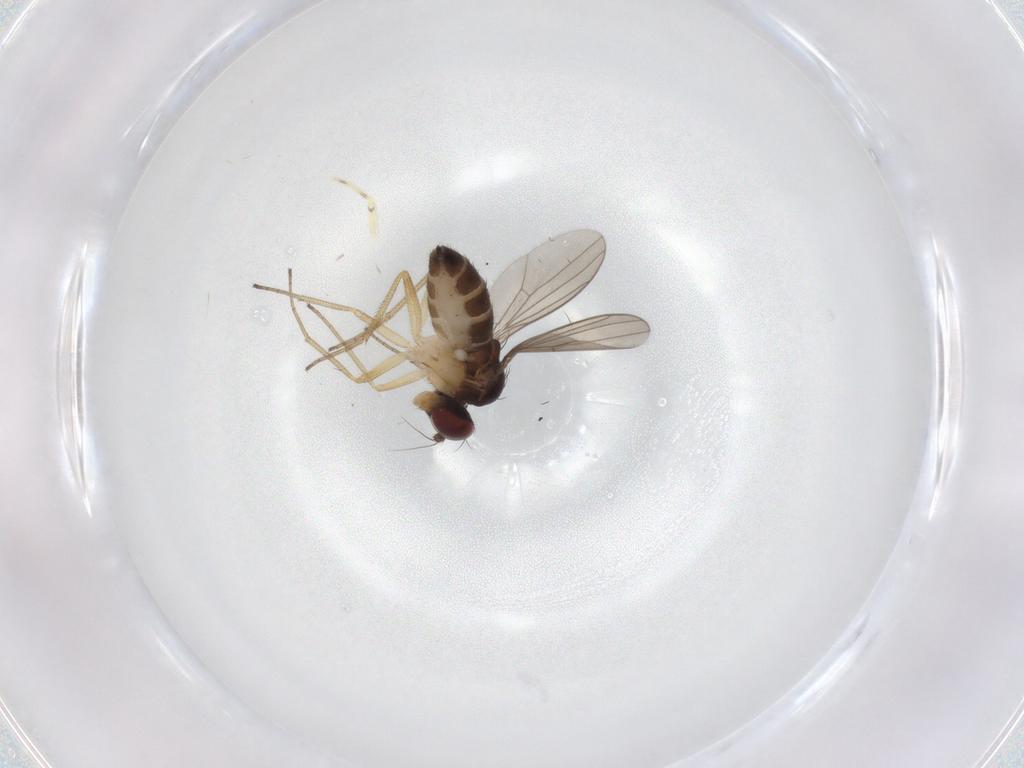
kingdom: Animalia
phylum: Arthropoda
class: Insecta
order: Diptera
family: Dolichopodidae
